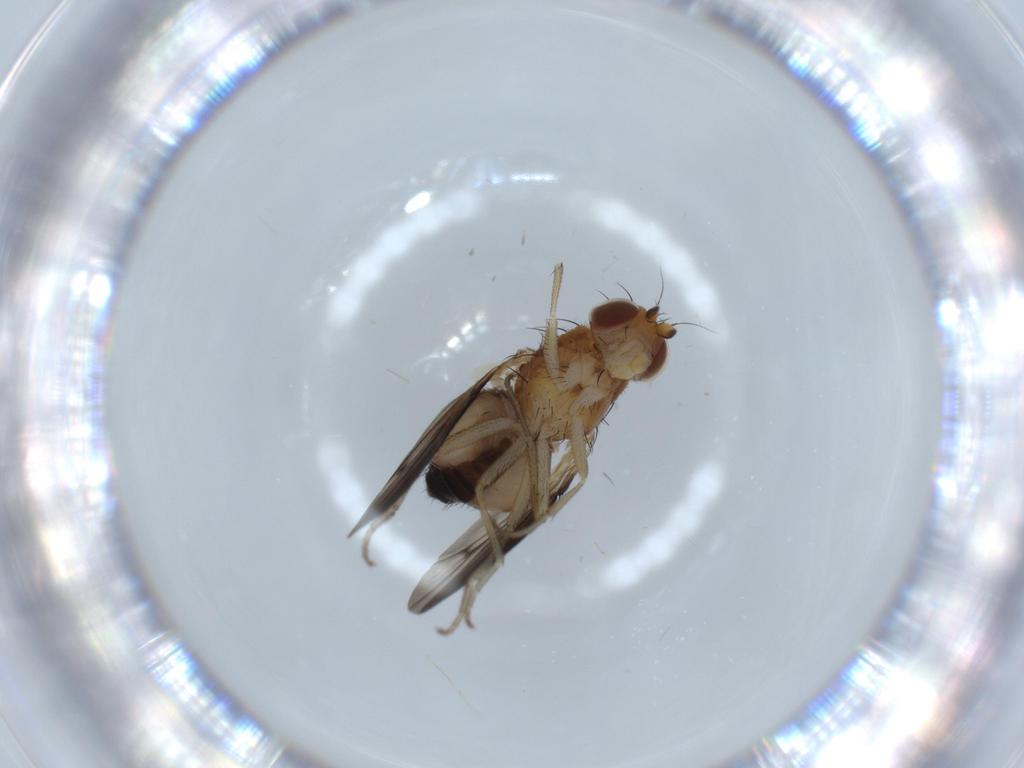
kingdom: Animalia
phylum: Arthropoda
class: Insecta
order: Diptera
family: Heleomyzidae
